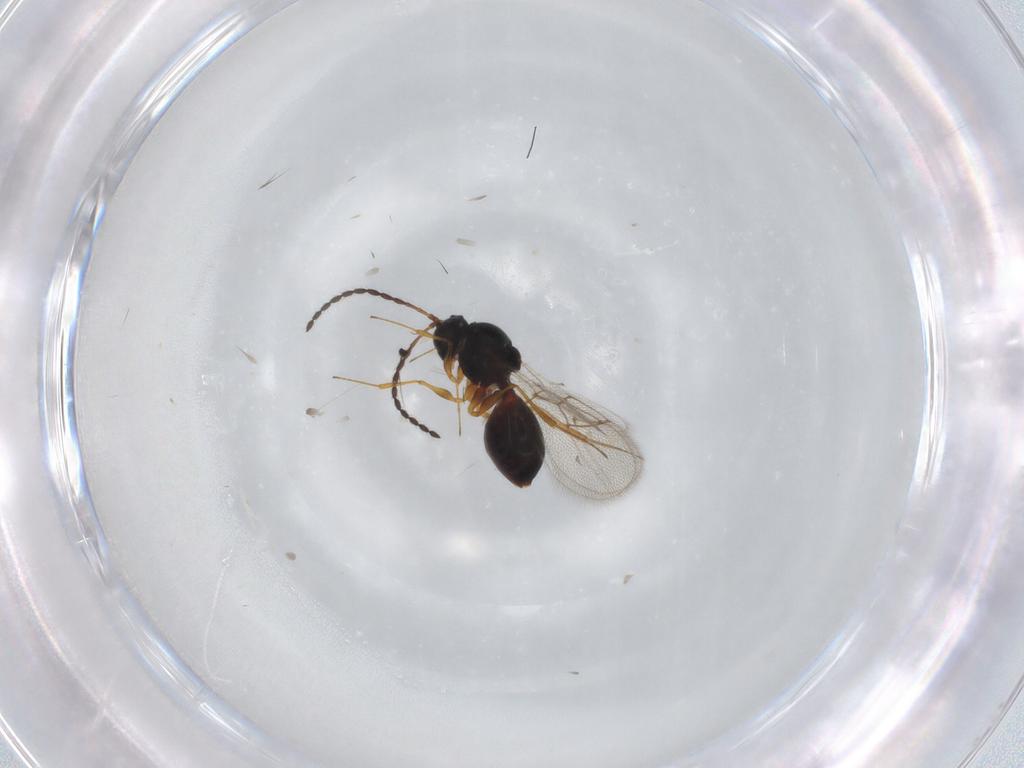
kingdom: Animalia
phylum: Arthropoda
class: Insecta
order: Hymenoptera
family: Figitidae
